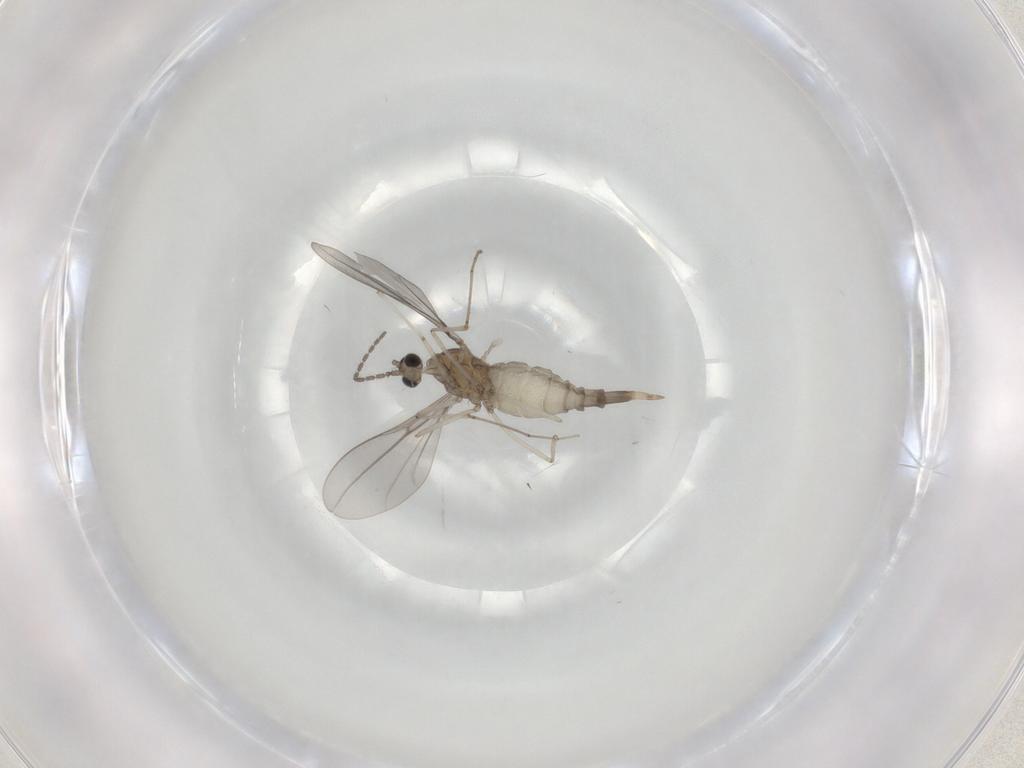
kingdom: Animalia
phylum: Arthropoda
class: Insecta
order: Diptera
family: Cecidomyiidae
